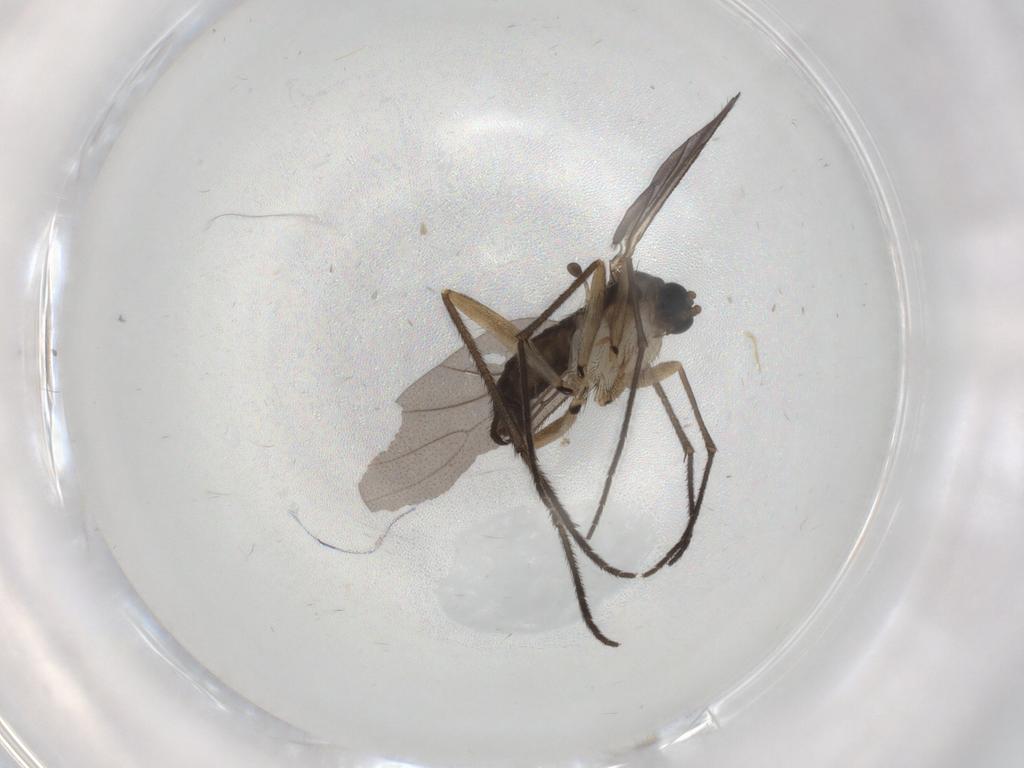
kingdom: Animalia
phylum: Arthropoda
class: Insecta
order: Diptera
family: Sciaridae
